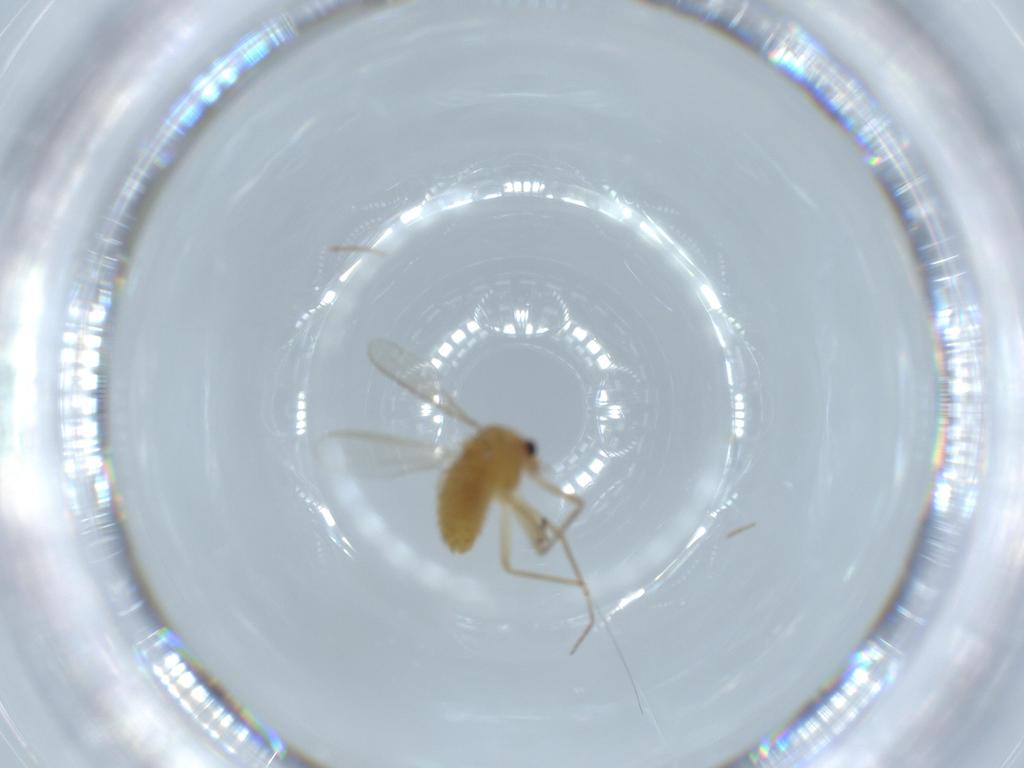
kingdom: Animalia
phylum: Arthropoda
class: Insecta
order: Diptera
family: Chironomidae
